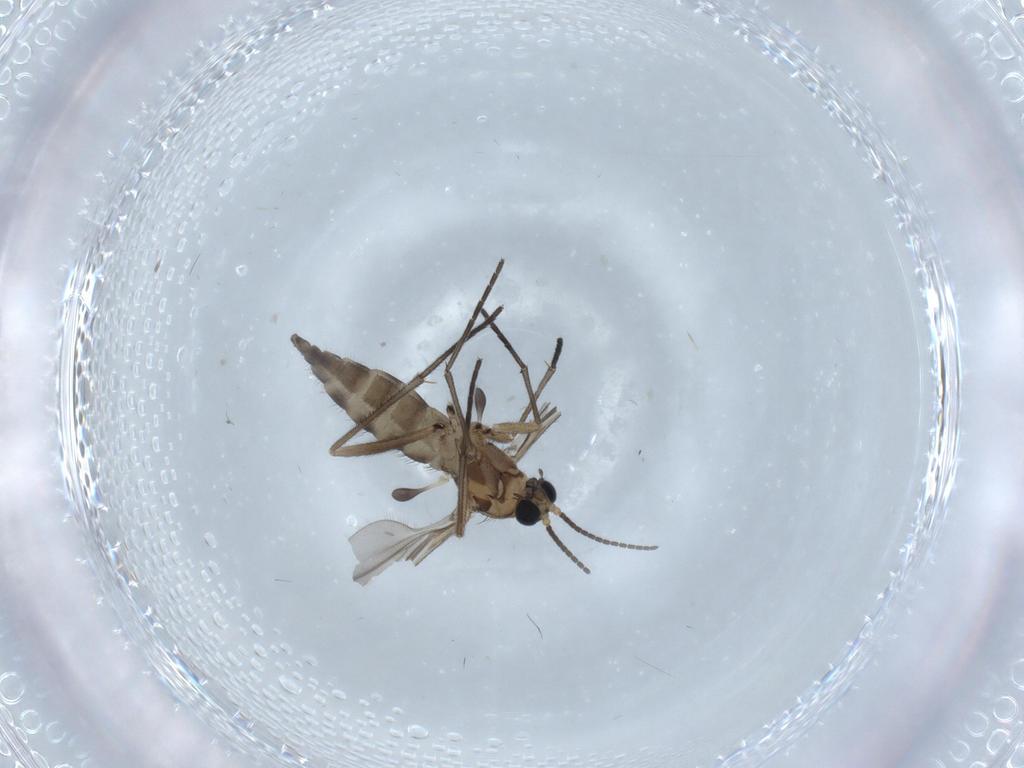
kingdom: Animalia
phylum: Arthropoda
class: Insecta
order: Diptera
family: Sciaridae
